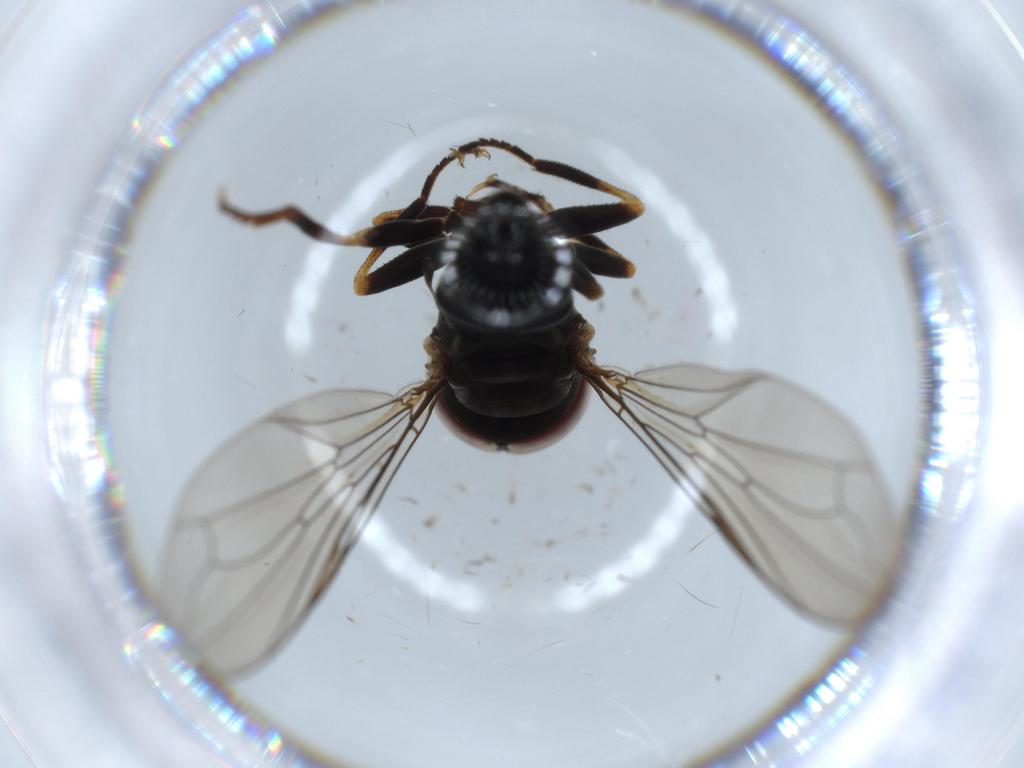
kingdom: Animalia
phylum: Arthropoda
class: Insecta
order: Diptera
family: Pipunculidae
